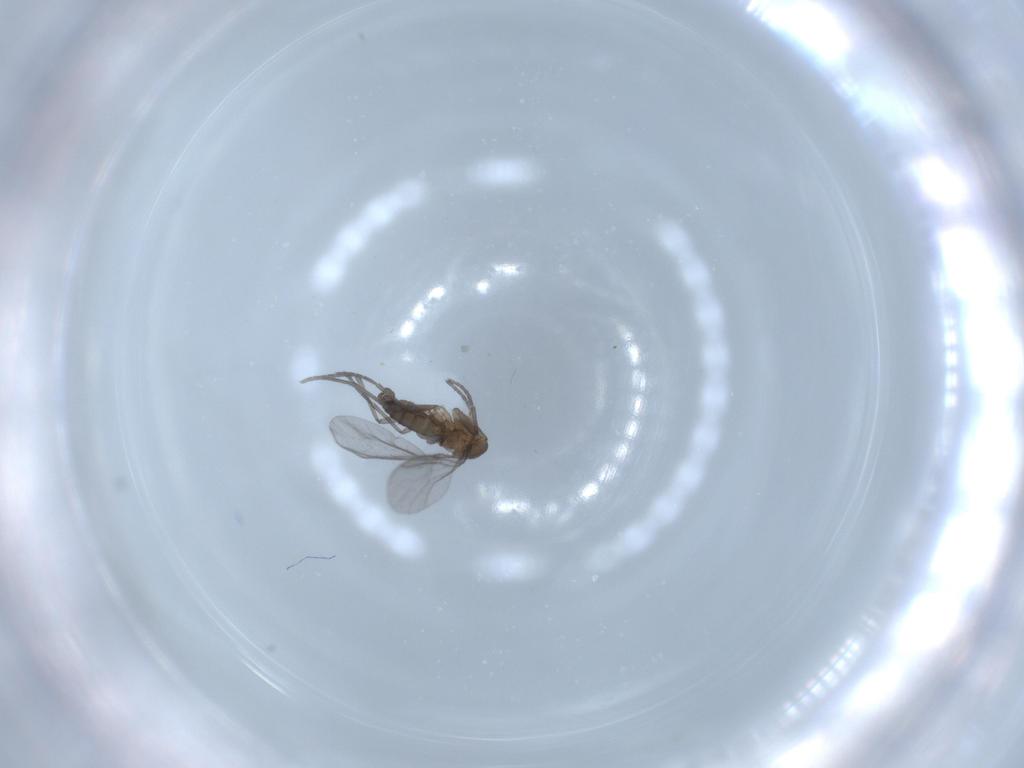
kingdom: Animalia
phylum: Arthropoda
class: Insecta
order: Diptera
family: Sciaridae
